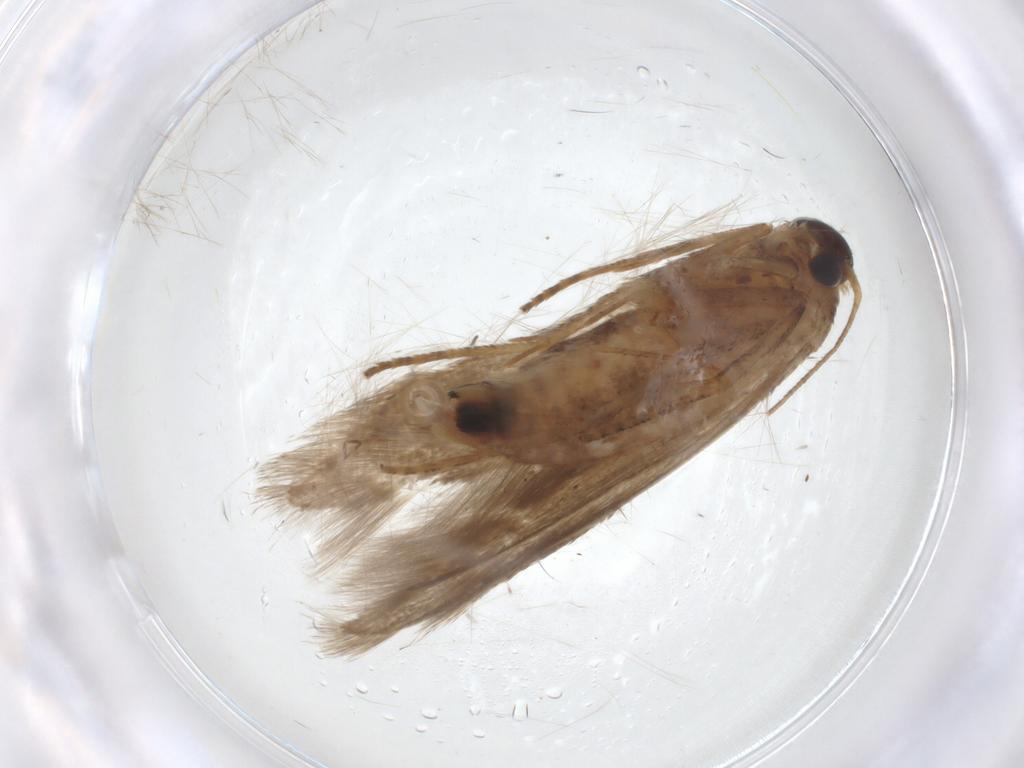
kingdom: Animalia
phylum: Arthropoda
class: Insecta
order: Lepidoptera
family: Blastobasidae
